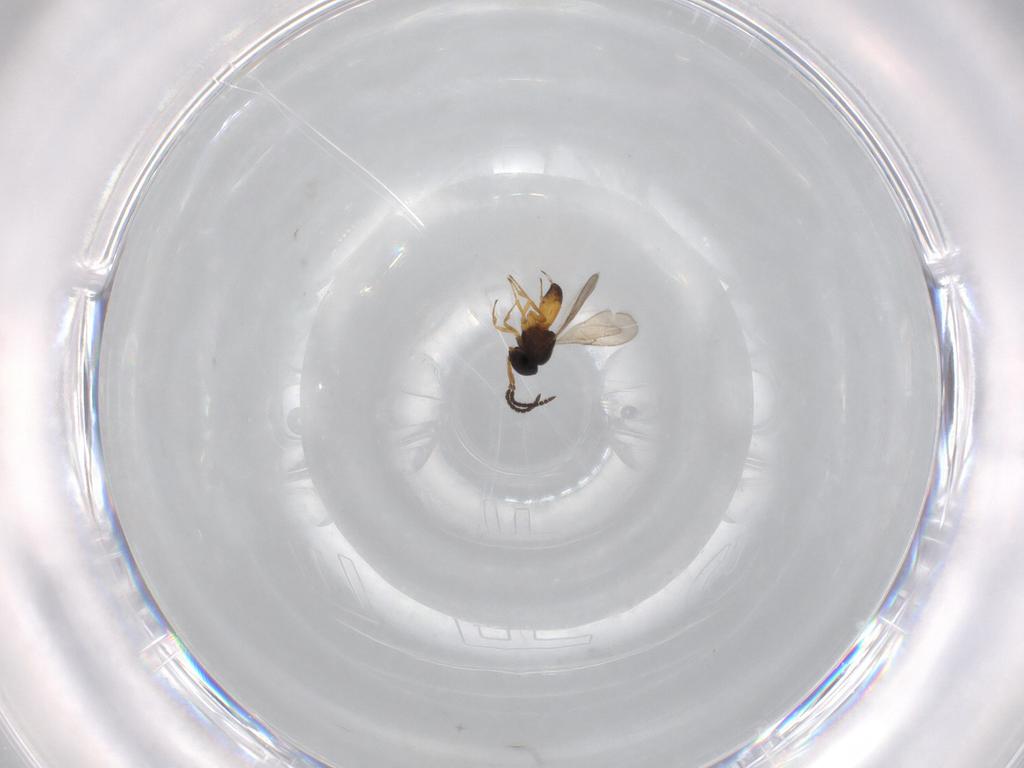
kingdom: Animalia
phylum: Arthropoda
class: Insecta
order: Hymenoptera
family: Scelionidae
